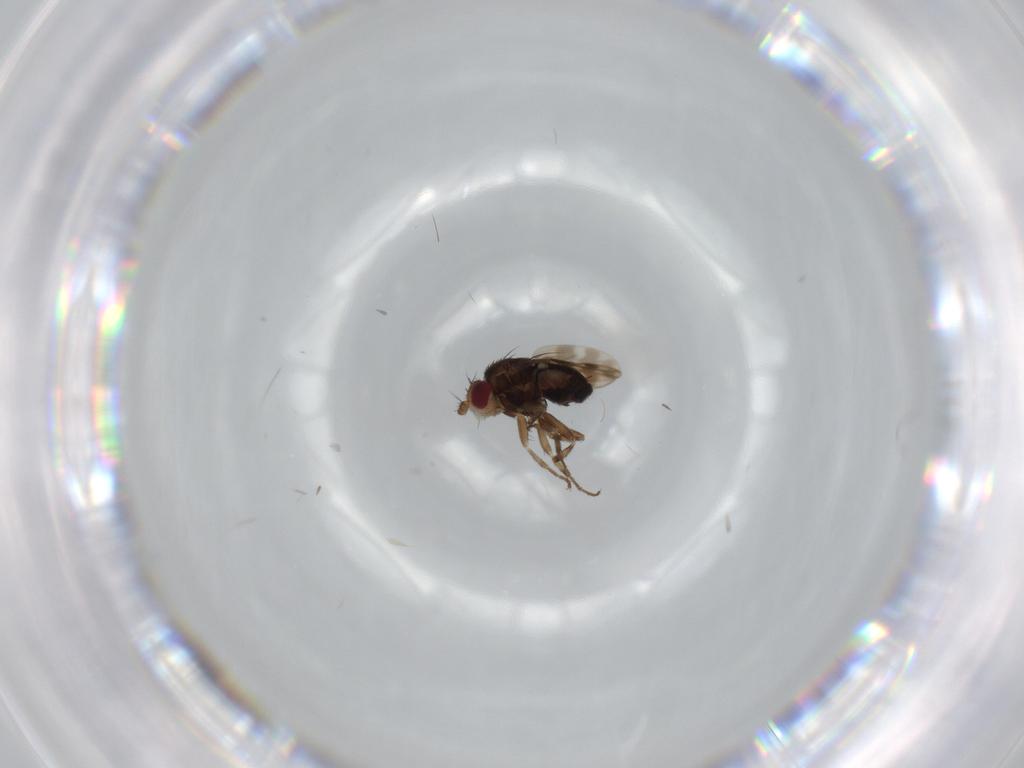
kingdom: Animalia
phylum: Arthropoda
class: Insecta
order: Diptera
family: Sphaeroceridae
